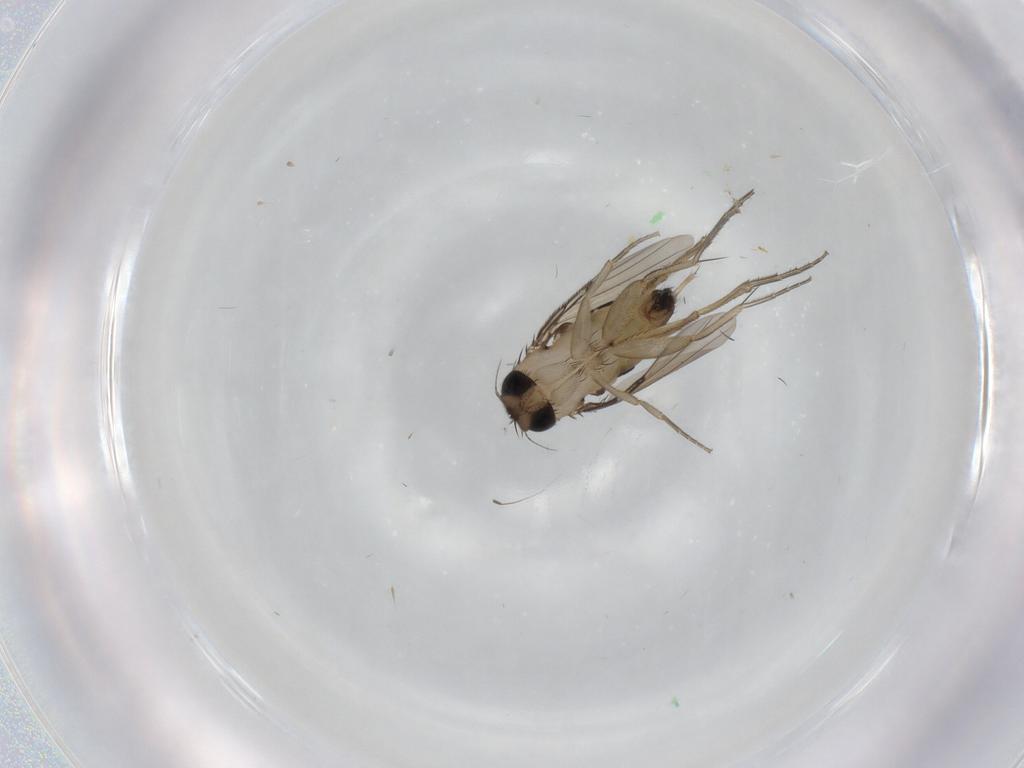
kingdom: Animalia
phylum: Arthropoda
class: Insecta
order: Diptera
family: Phoridae
